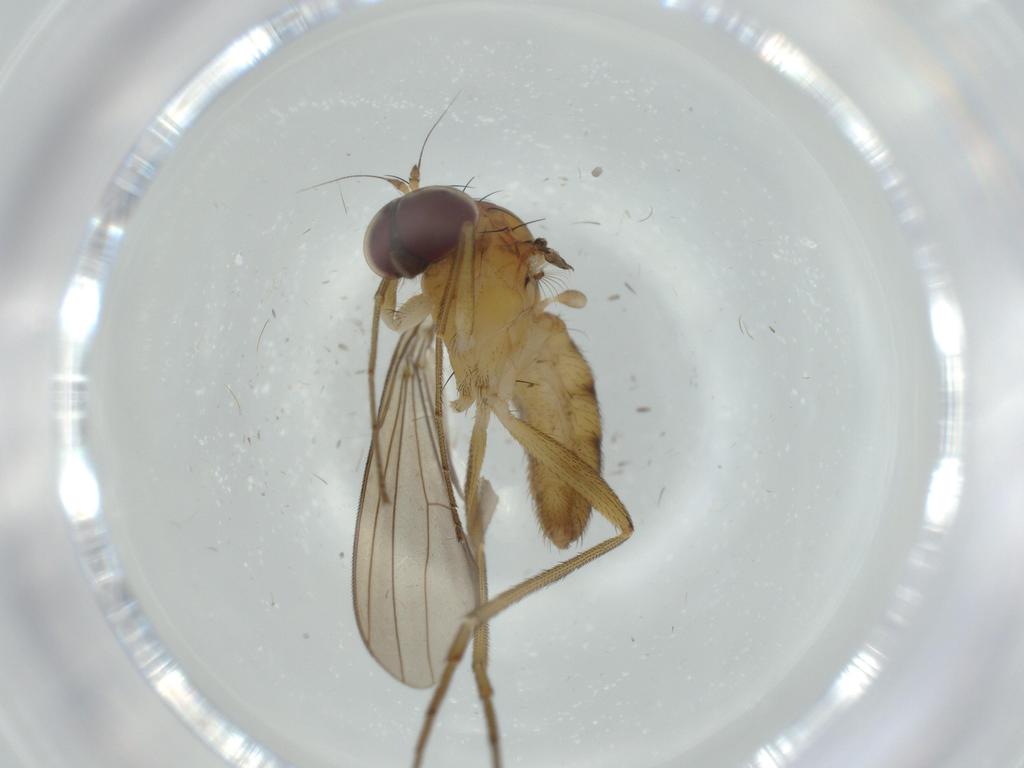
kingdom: Animalia
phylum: Arthropoda
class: Insecta
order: Diptera
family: Dolichopodidae
